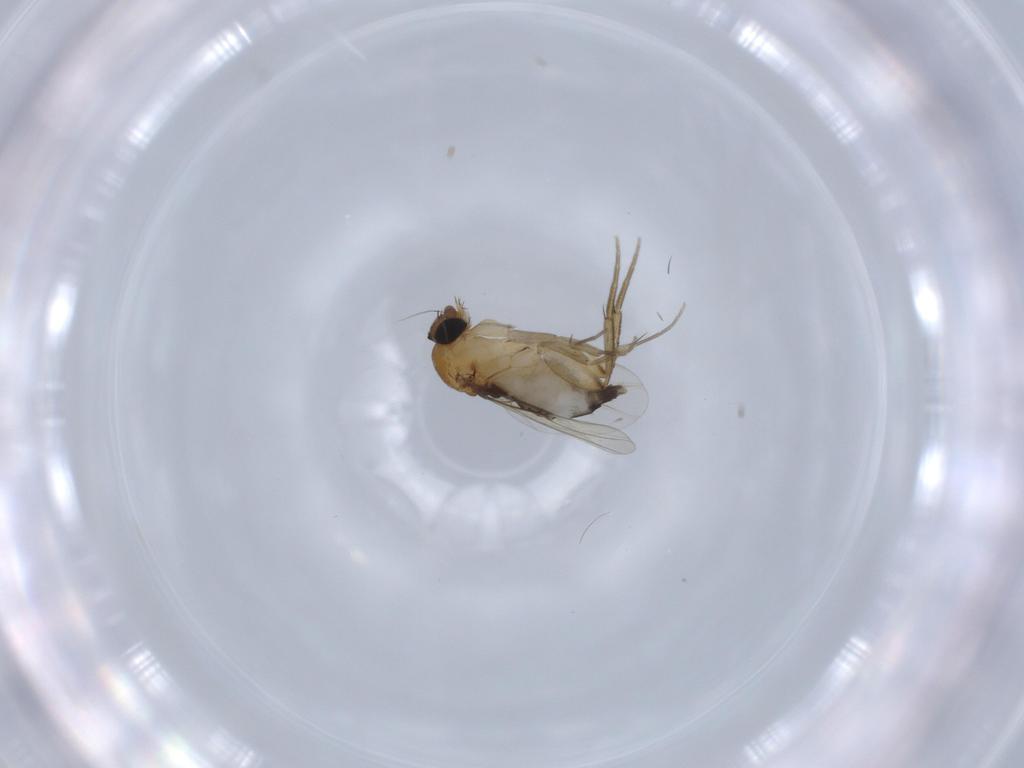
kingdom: Animalia
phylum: Arthropoda
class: Insecta
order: Diptera
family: Phoridae
